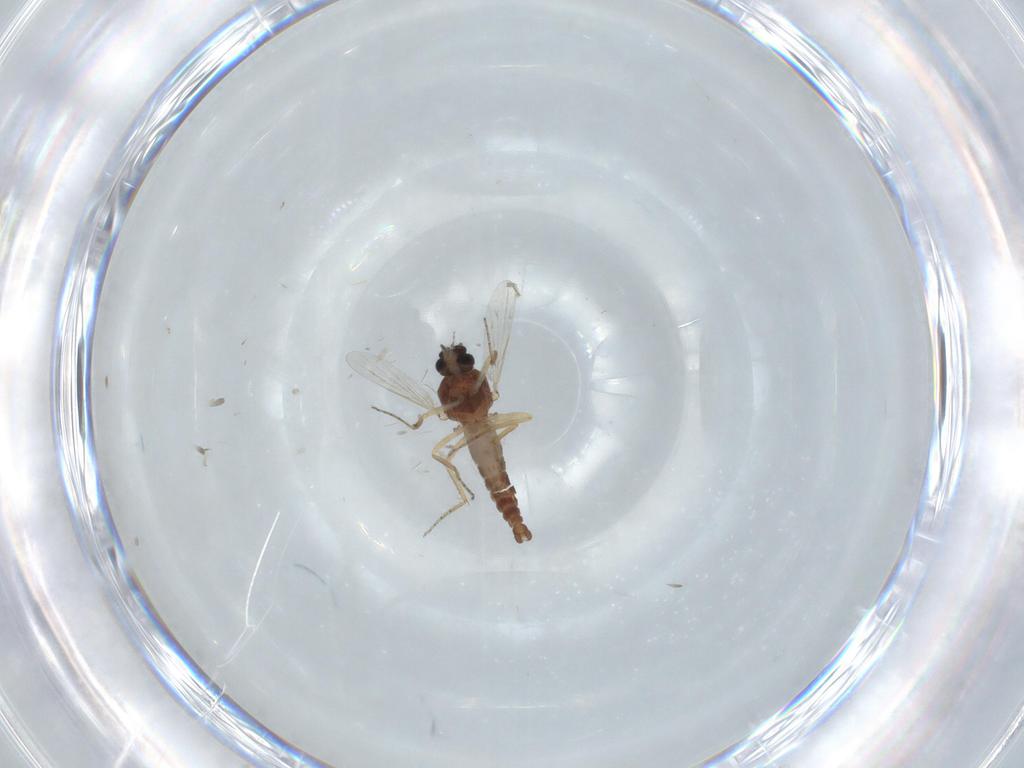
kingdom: Animalia
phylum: Arthropoda
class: Insecta
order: Diptera
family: Ceratopogonidae
